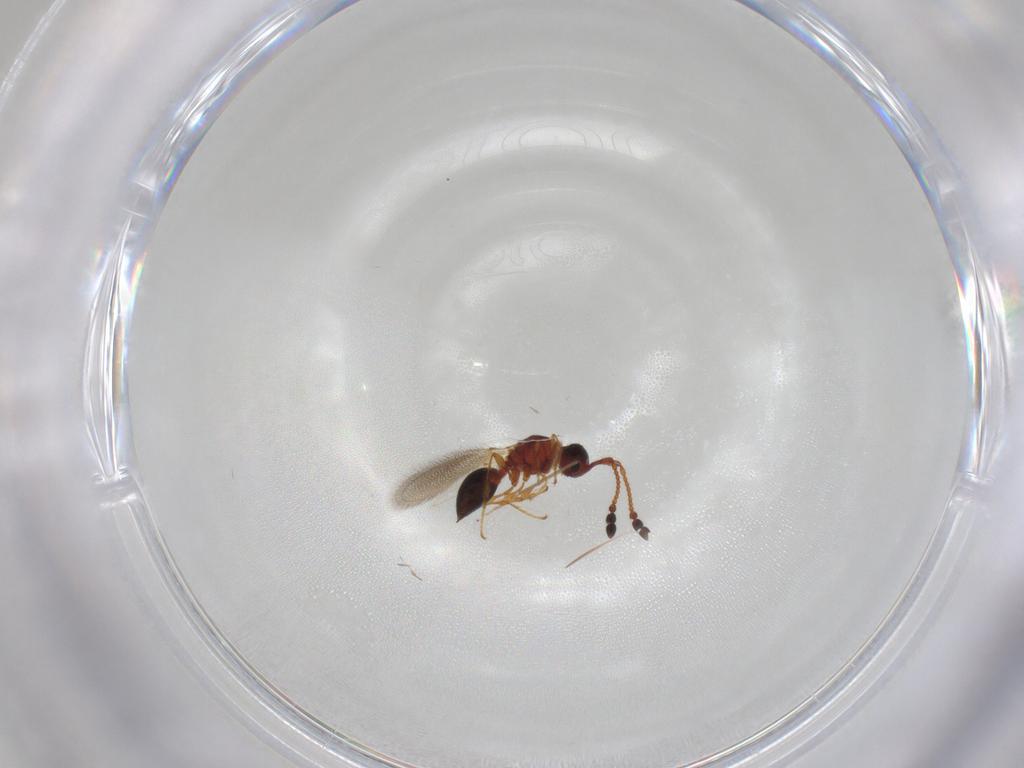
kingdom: Animalia
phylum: Arthropoda
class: Insecta
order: Hymenoptera
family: Diapriidae
